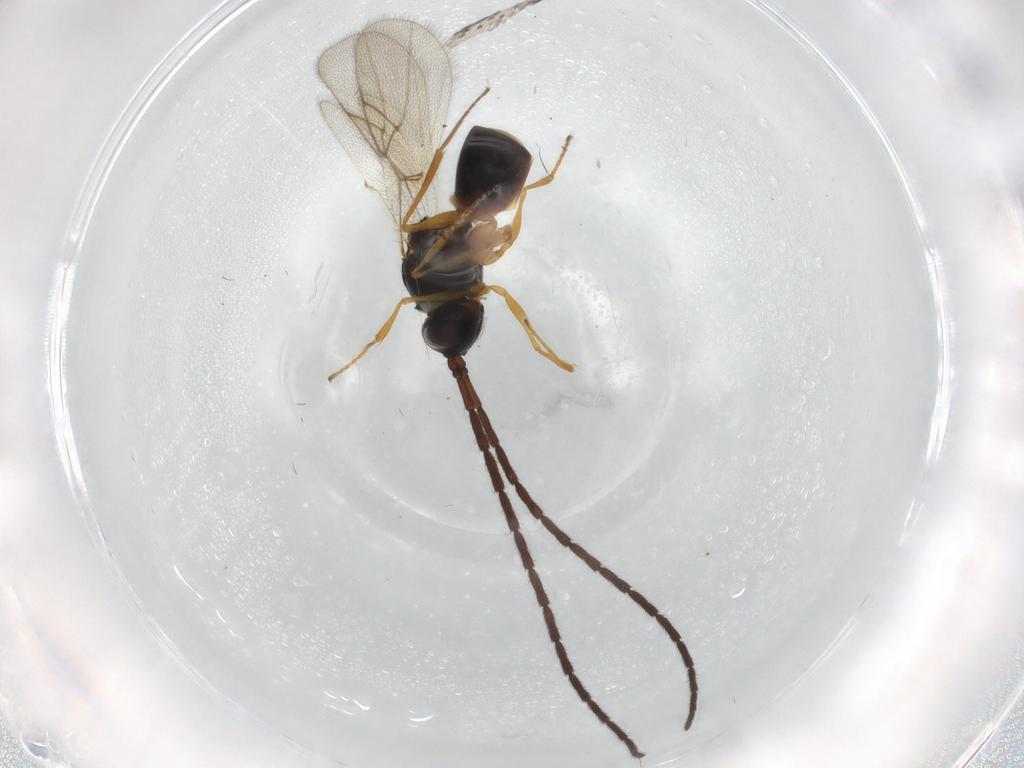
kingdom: Animalia
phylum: Arthropoda
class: Insecta
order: Hymenoptera
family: Figitidae
